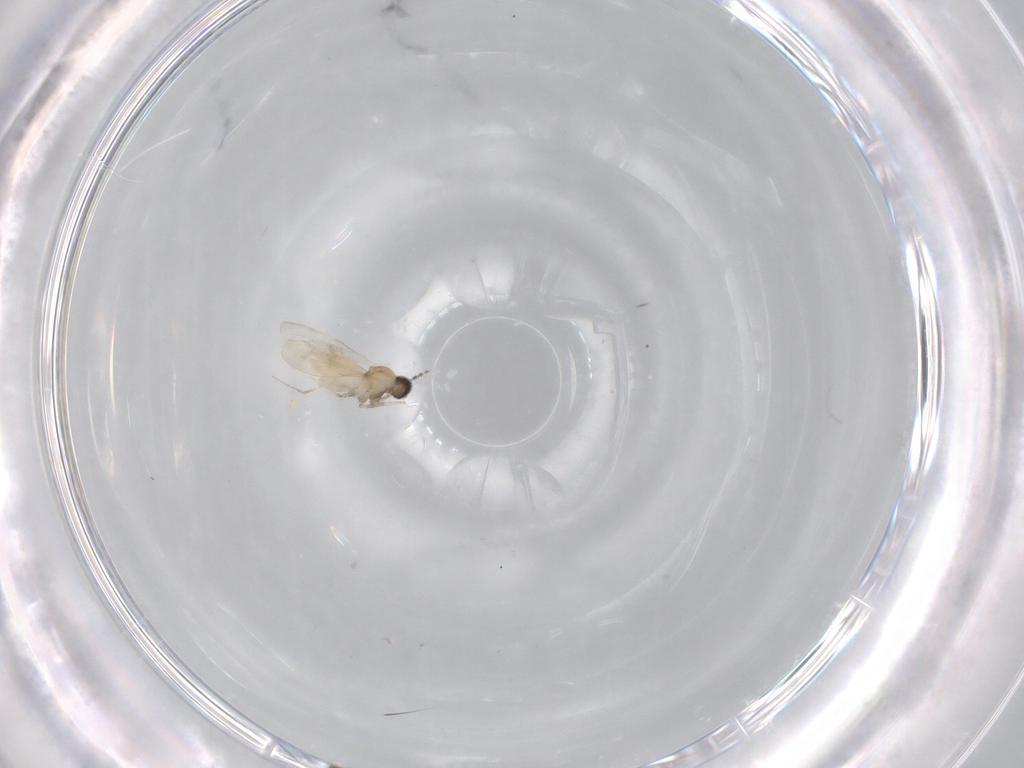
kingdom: Animalia
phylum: Arthropoda
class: Insecta
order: Diptera
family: Cecidomyiidae
